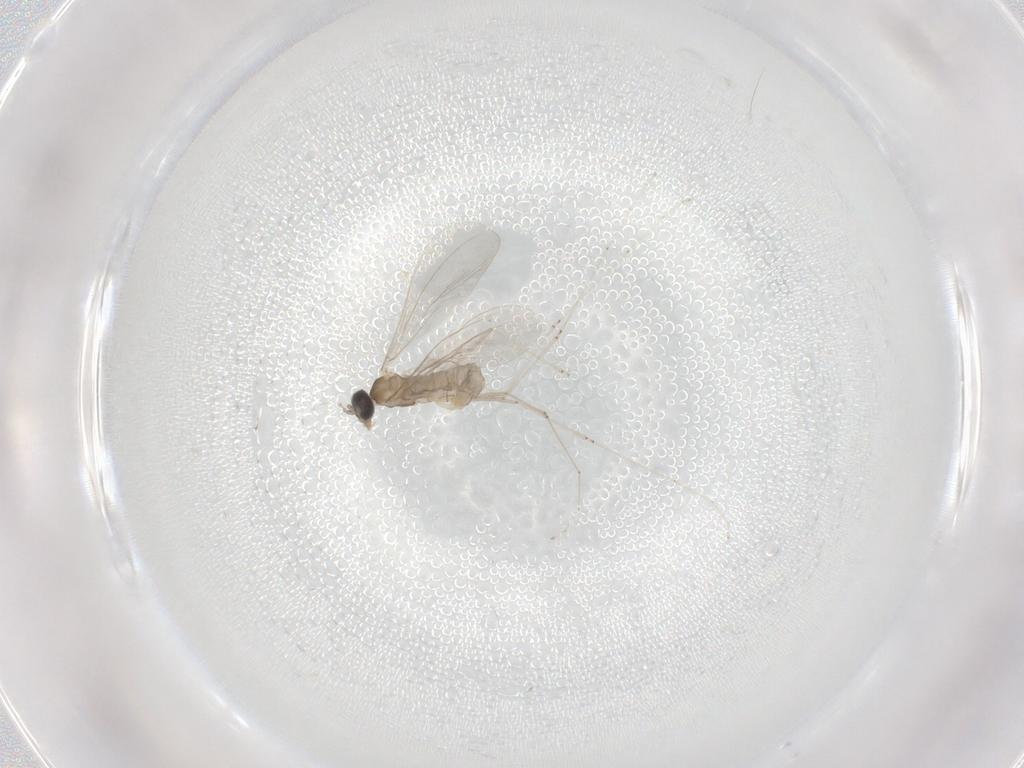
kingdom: Animalia
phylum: Arthropoda
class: Insecta
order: Diptera
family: Cecidomyiidae
